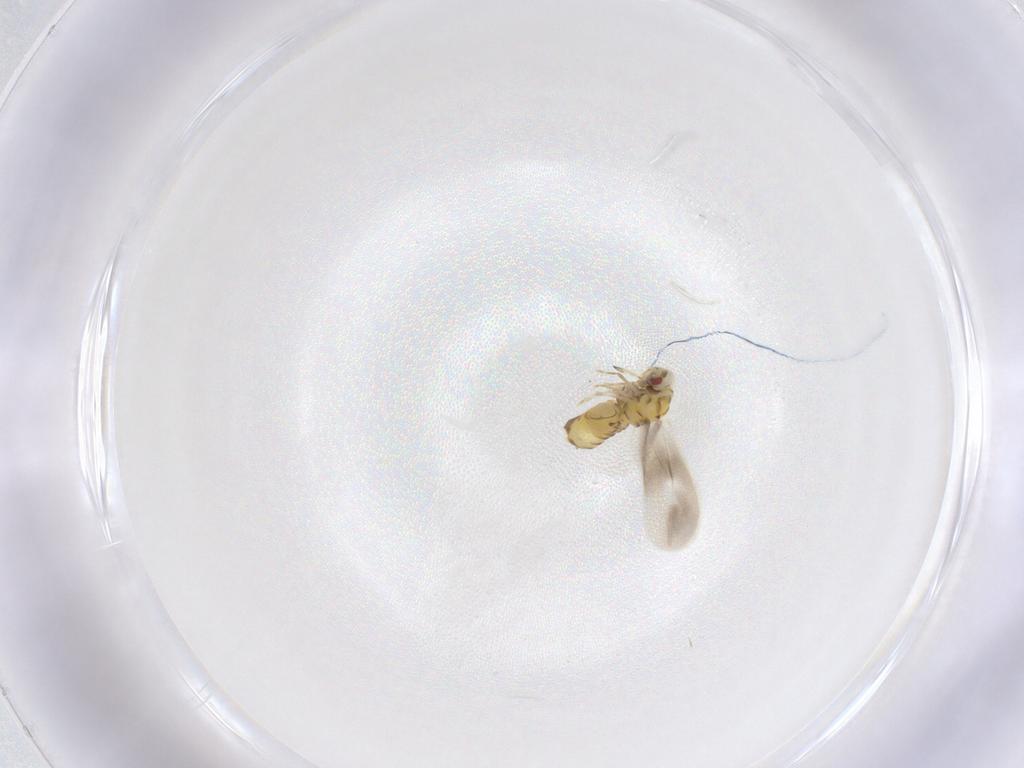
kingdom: Animalia
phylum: Arthropoda
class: Insecta
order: Diptera
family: Tabanidae
